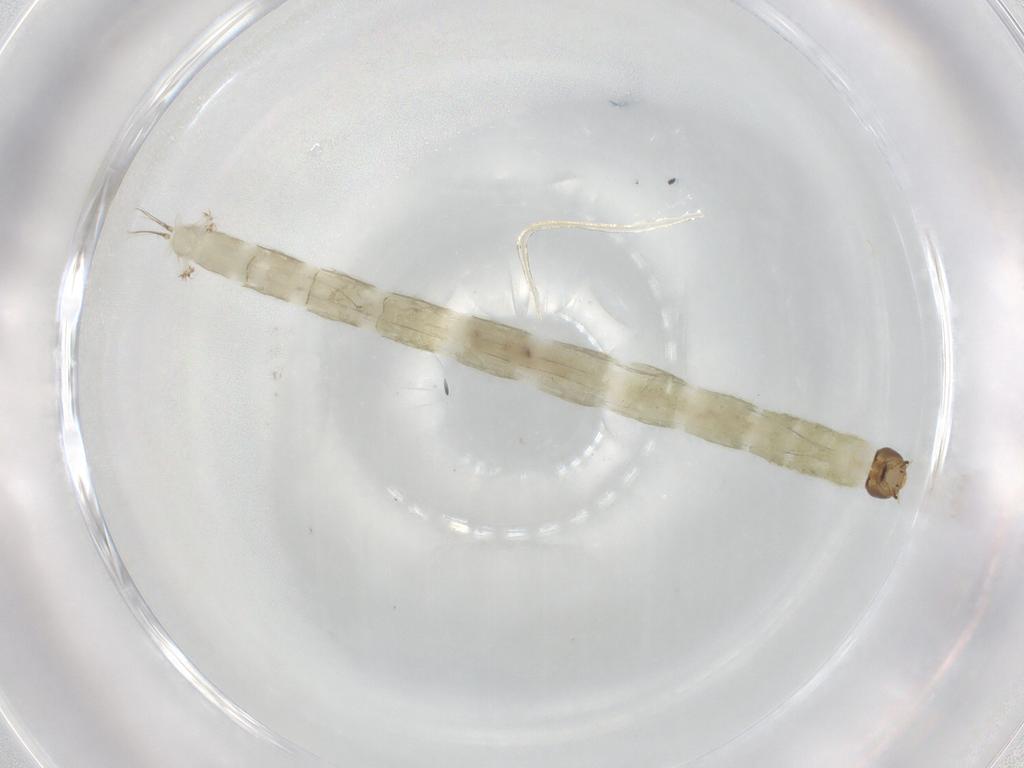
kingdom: Animalia
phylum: Arthropoda
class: Insecta
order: Diptera
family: Chironomidae
